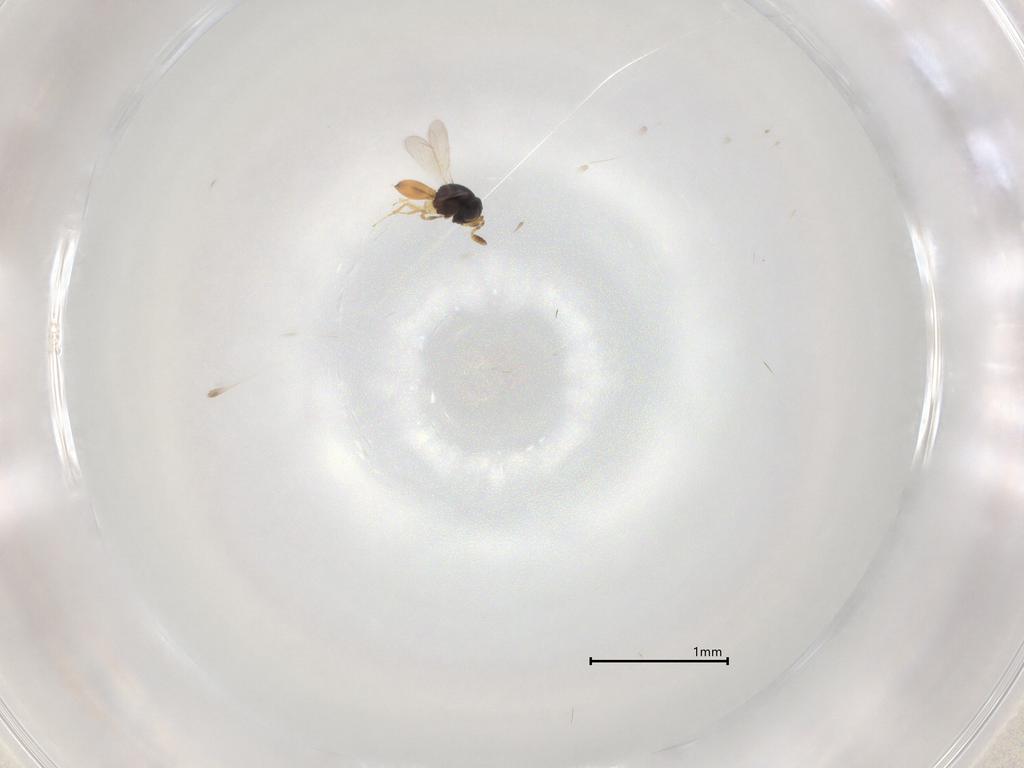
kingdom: Animalia
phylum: Arthropoda
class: Insecta
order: Hymenoptera
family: Scelionidae
